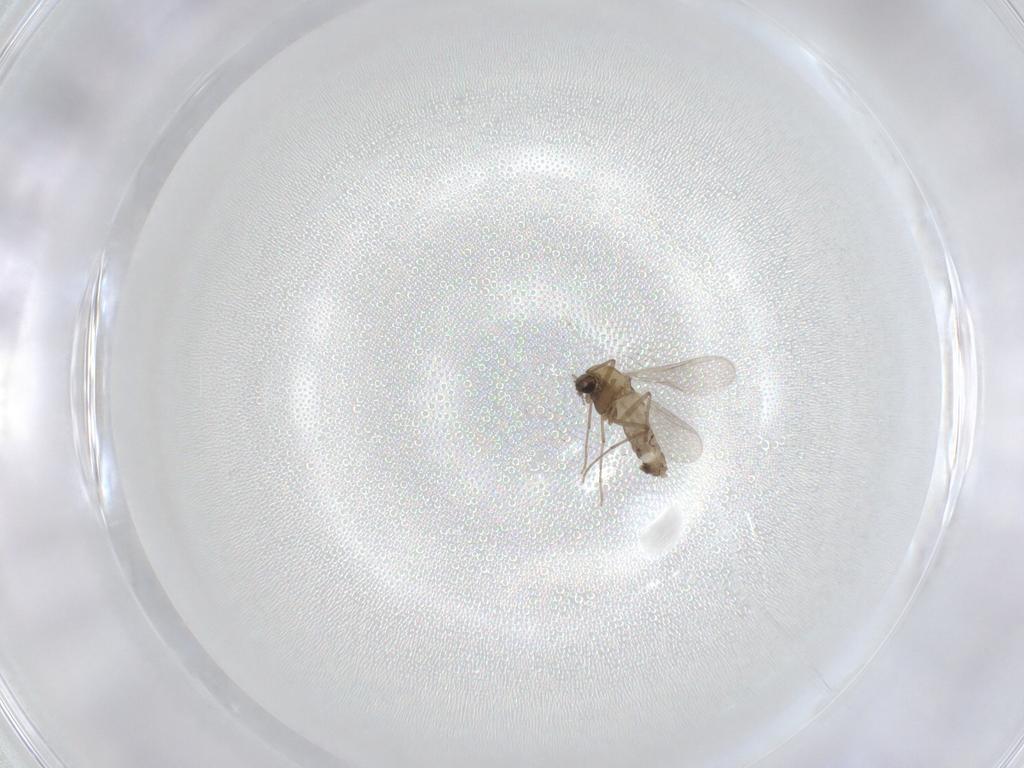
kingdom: Animalia
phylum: Arthropoda
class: Insecta
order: Diptera
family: Chironomidae
